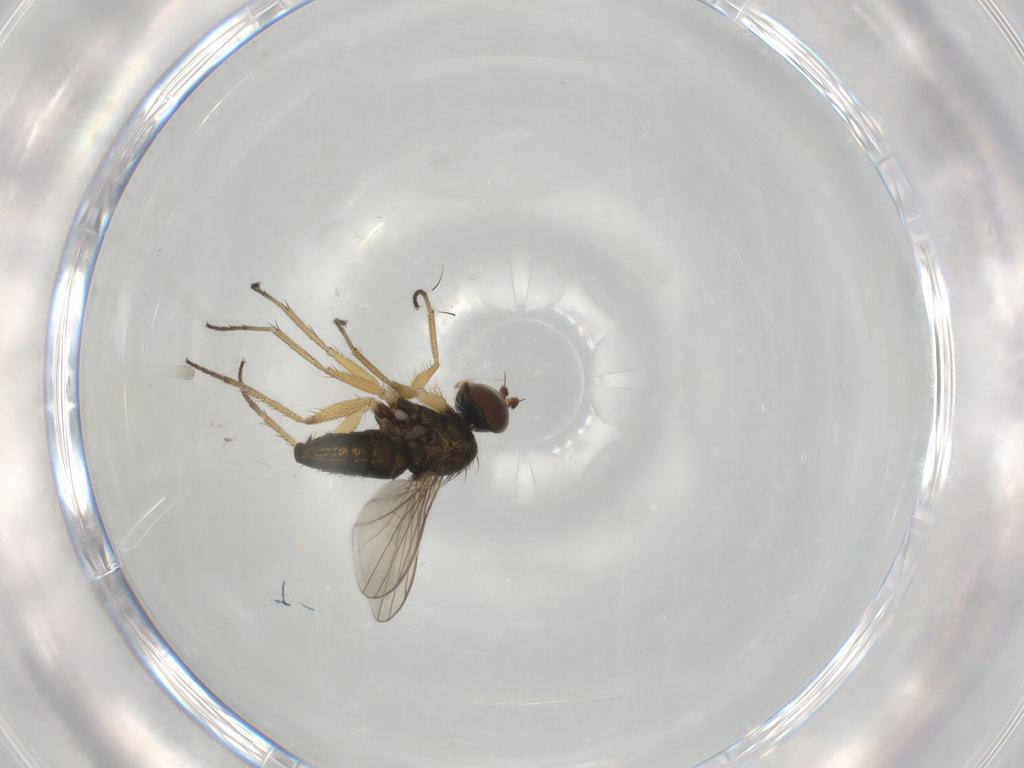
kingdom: Animalia
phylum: Arthropoda
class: Insecta
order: Diptera
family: Dolichopodidae
